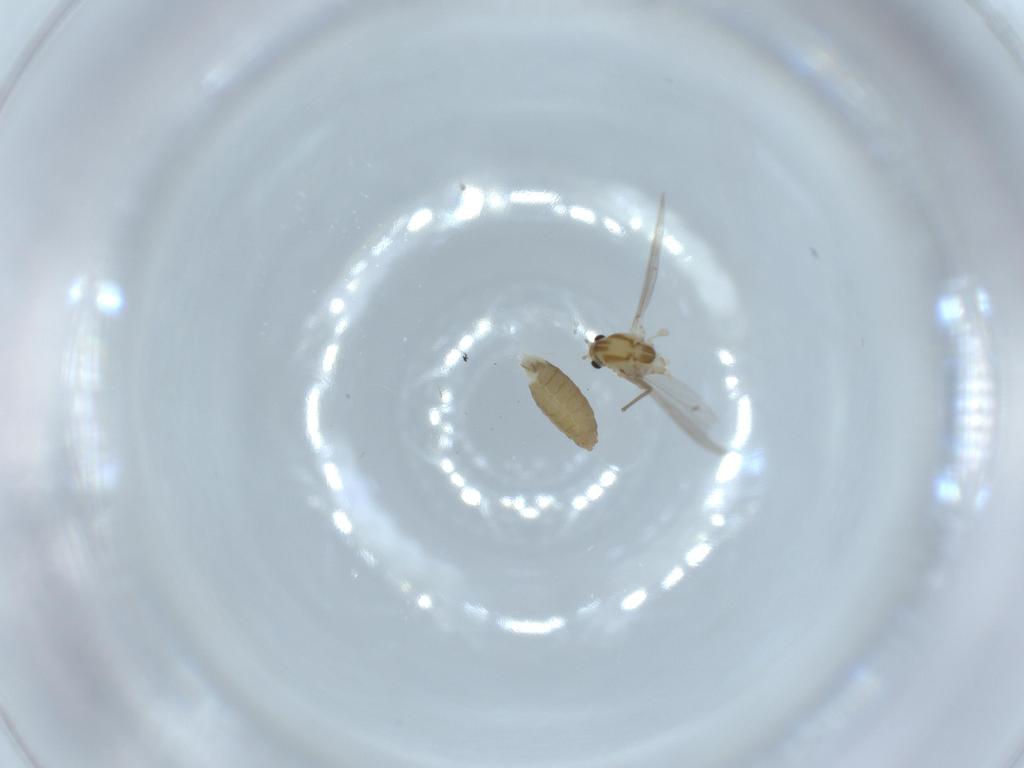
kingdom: Animalia
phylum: Arthropoda
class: Insecta
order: Diptera
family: Chironomidae
